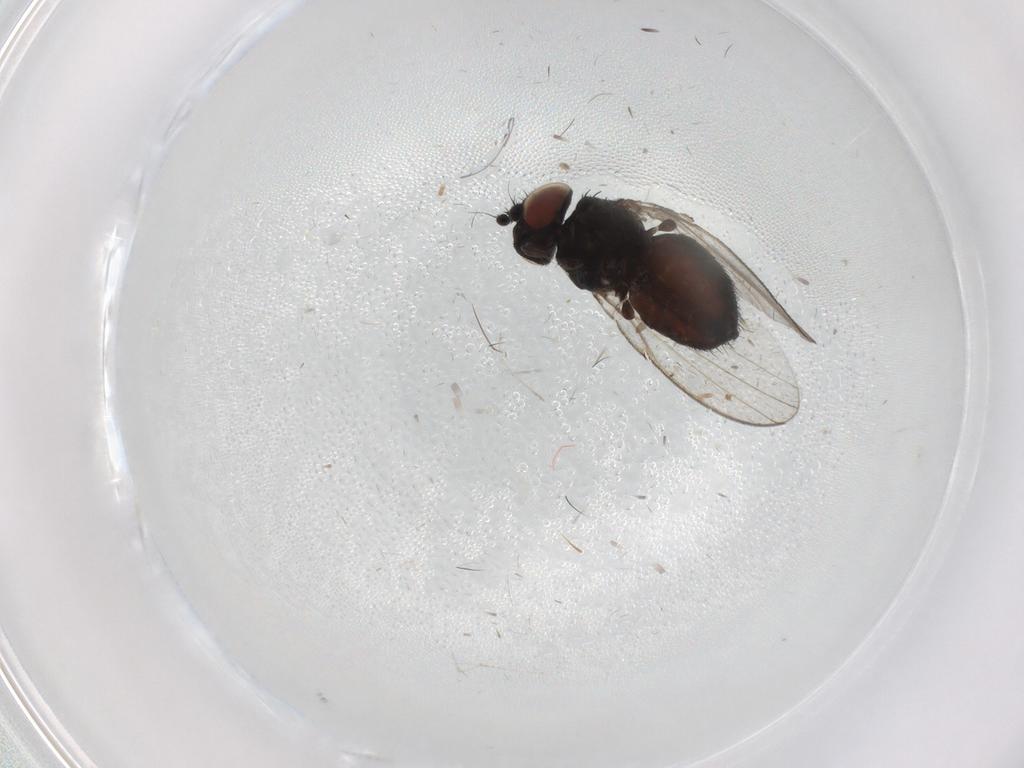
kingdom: Animalia
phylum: Arthropoda
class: Insecta
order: Diptera
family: Milichiidae
